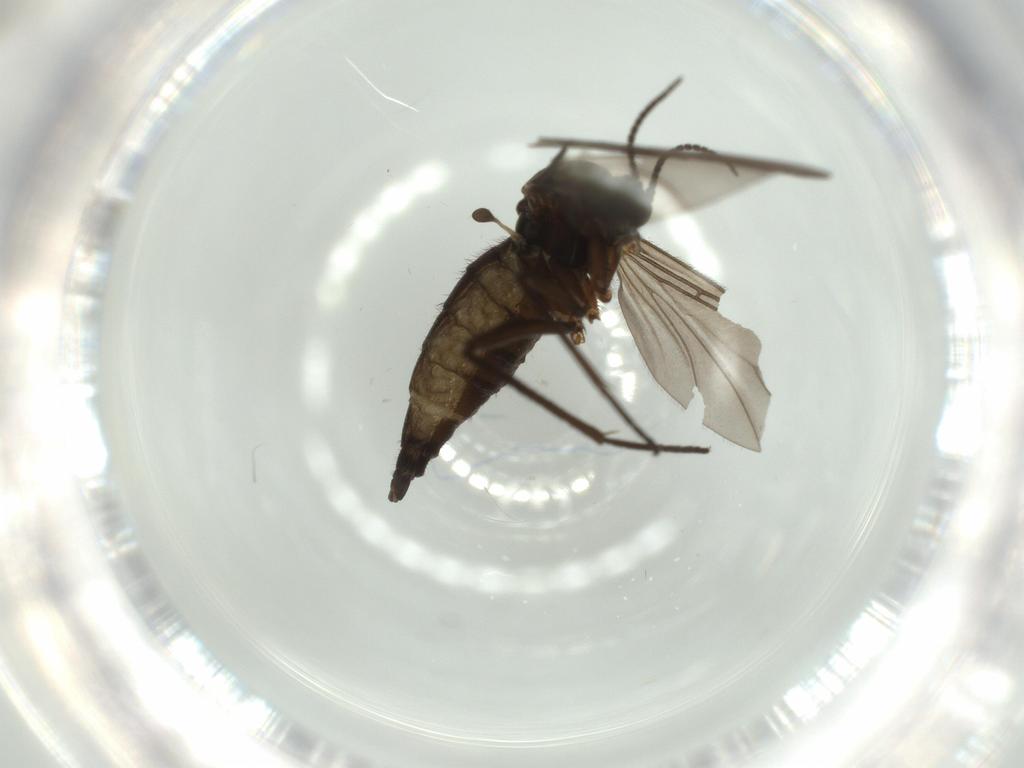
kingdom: Animalia
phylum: Arthropoda
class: Insecta
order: Diptera
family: Sciaridae
